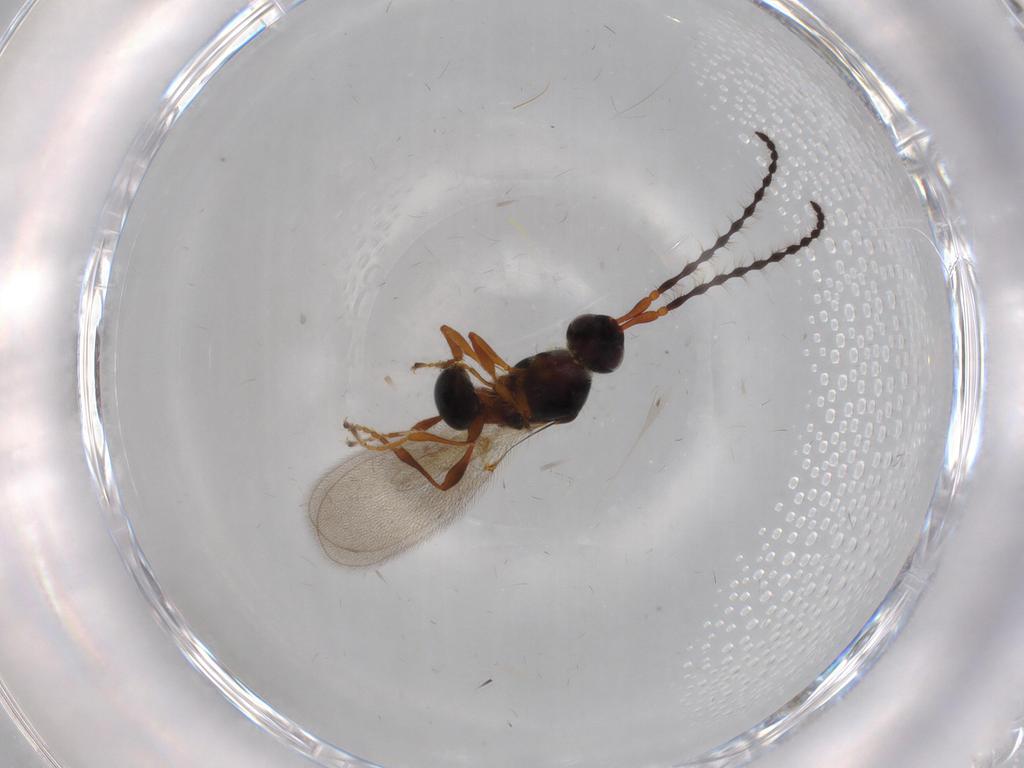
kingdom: Animalia
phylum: Arthropoda
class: Insecta
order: Hymenoptera
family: Diapriidae
